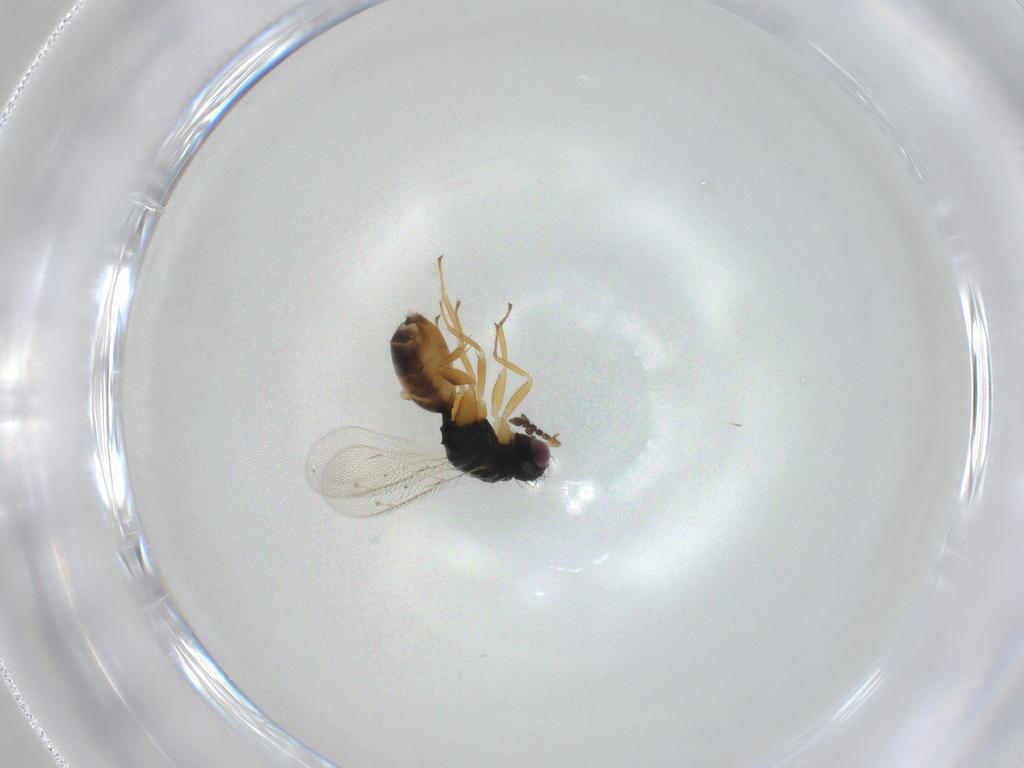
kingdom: Animalia
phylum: Arthropoda
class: Insecta
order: Hymenoptera
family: Eulophidae
